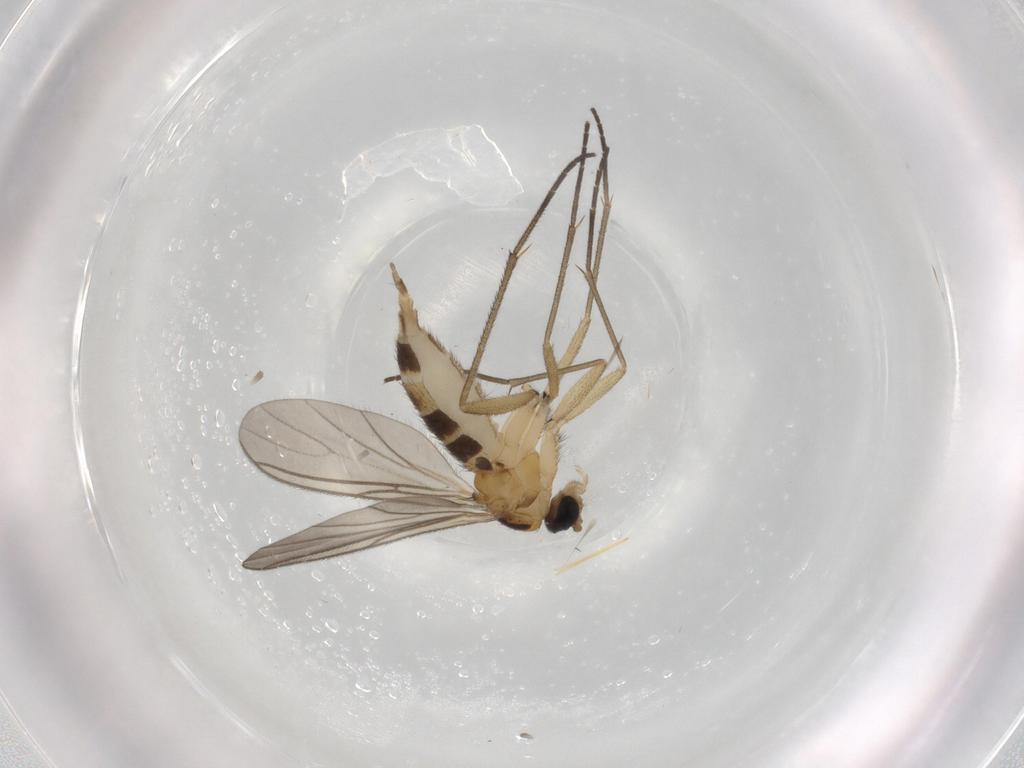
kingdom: Animalia
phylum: Arthropoda
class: Insecta
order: Diptera
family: Sciaridae
